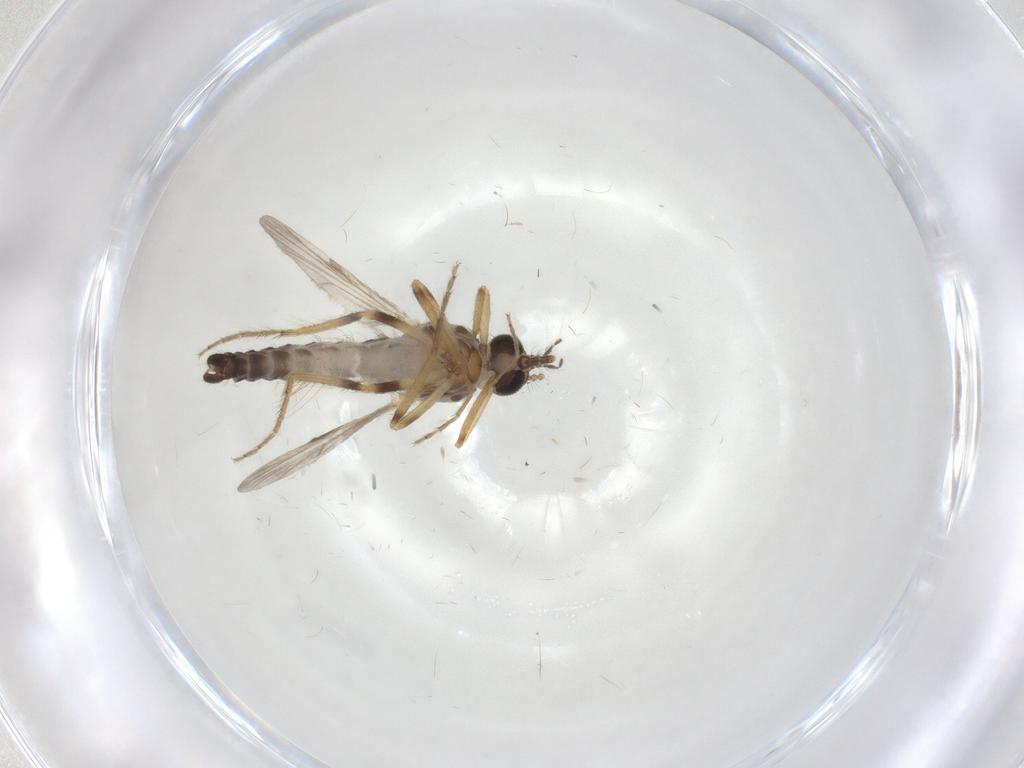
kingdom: Animalia
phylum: Arthropoda
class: Insecta
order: Diptera
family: Ceratopogonidae
